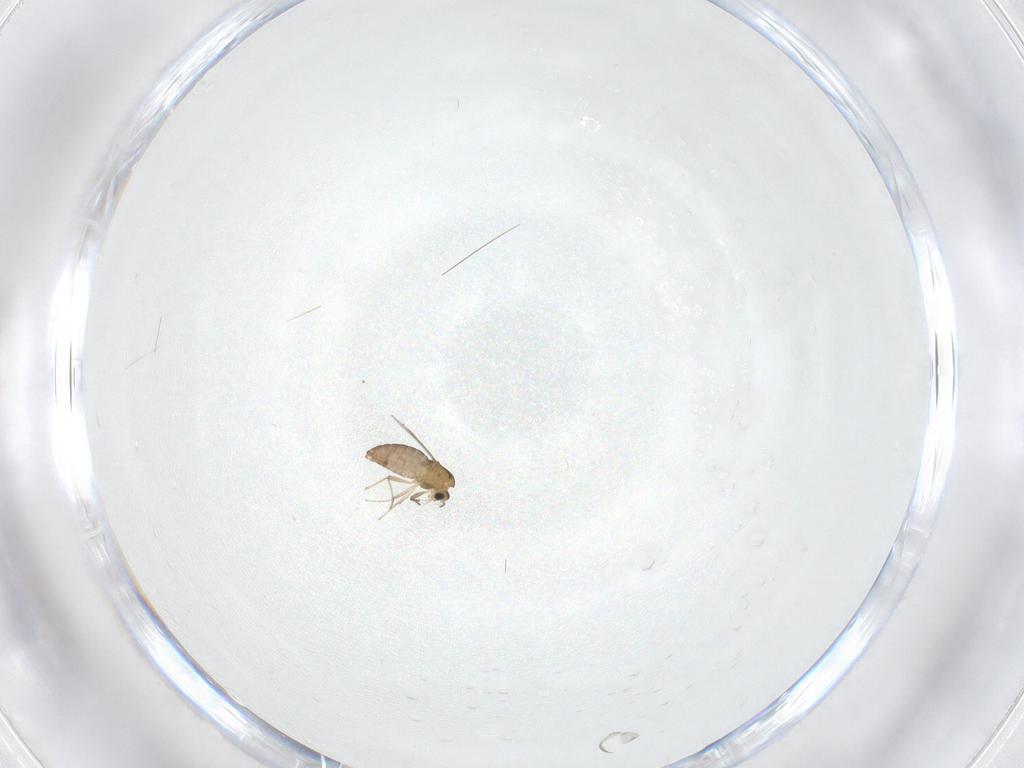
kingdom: Animalia
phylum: Arthropoda
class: Insecta
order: Diptera
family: Chironomidae
